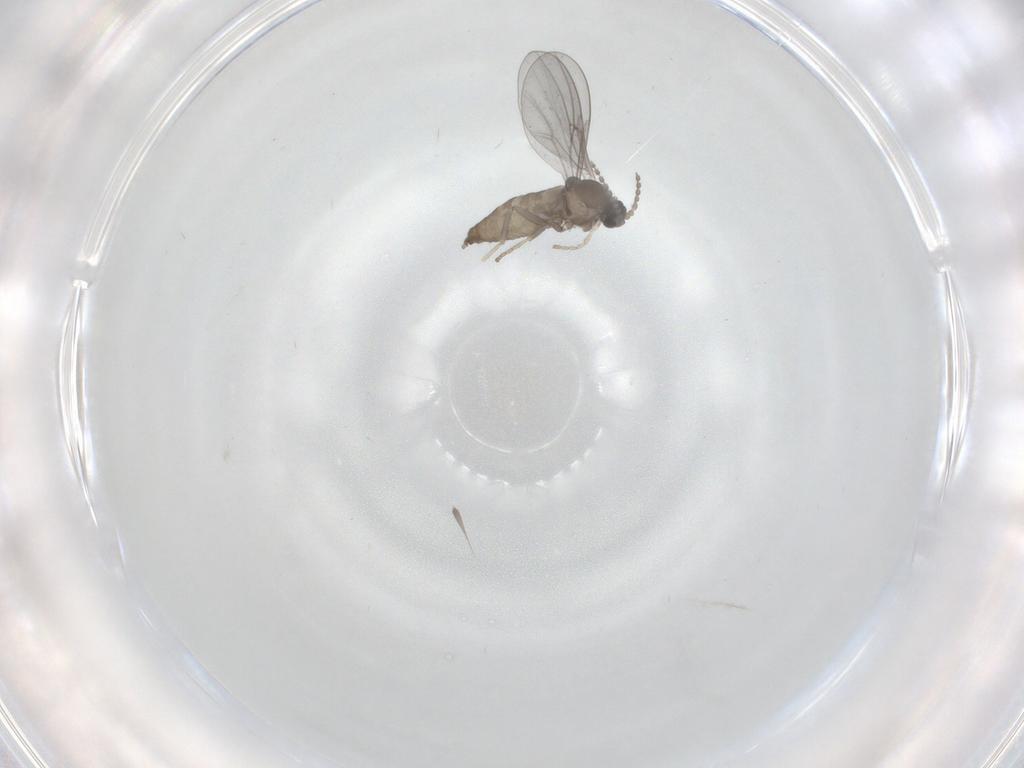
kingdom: Animalia
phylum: Arthropoda
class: Insecta
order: Diptera
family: Cecidomyiidae
